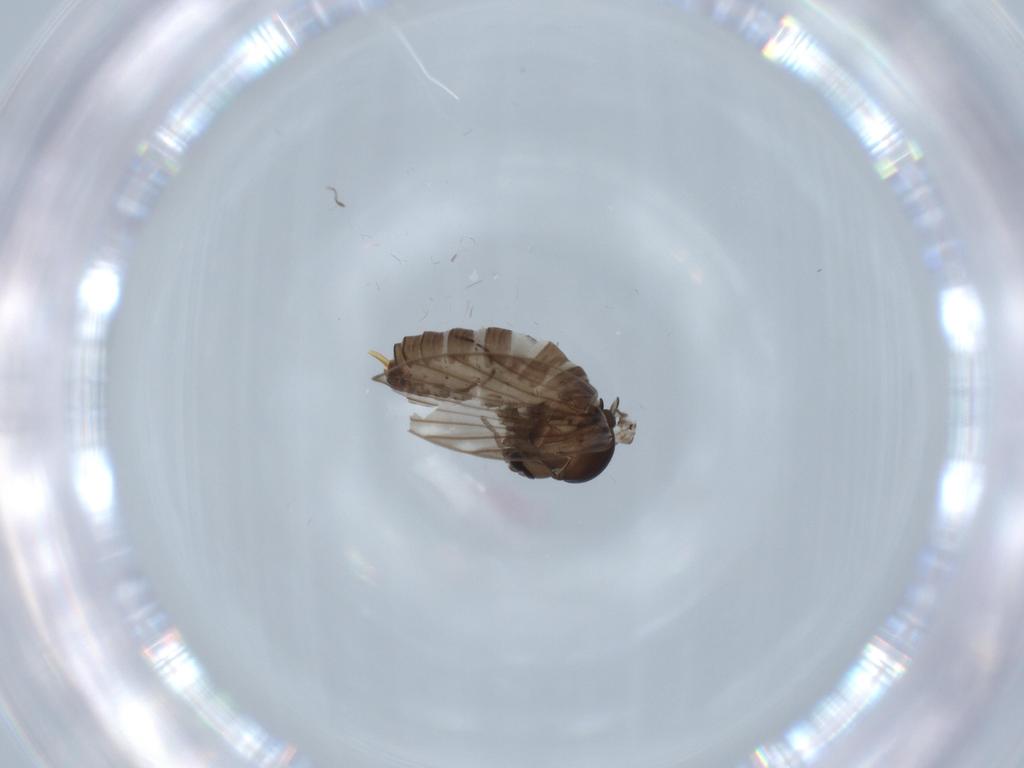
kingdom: Animalia
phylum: Arthropoda
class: Insecta
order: Diptera
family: Psychodidae
